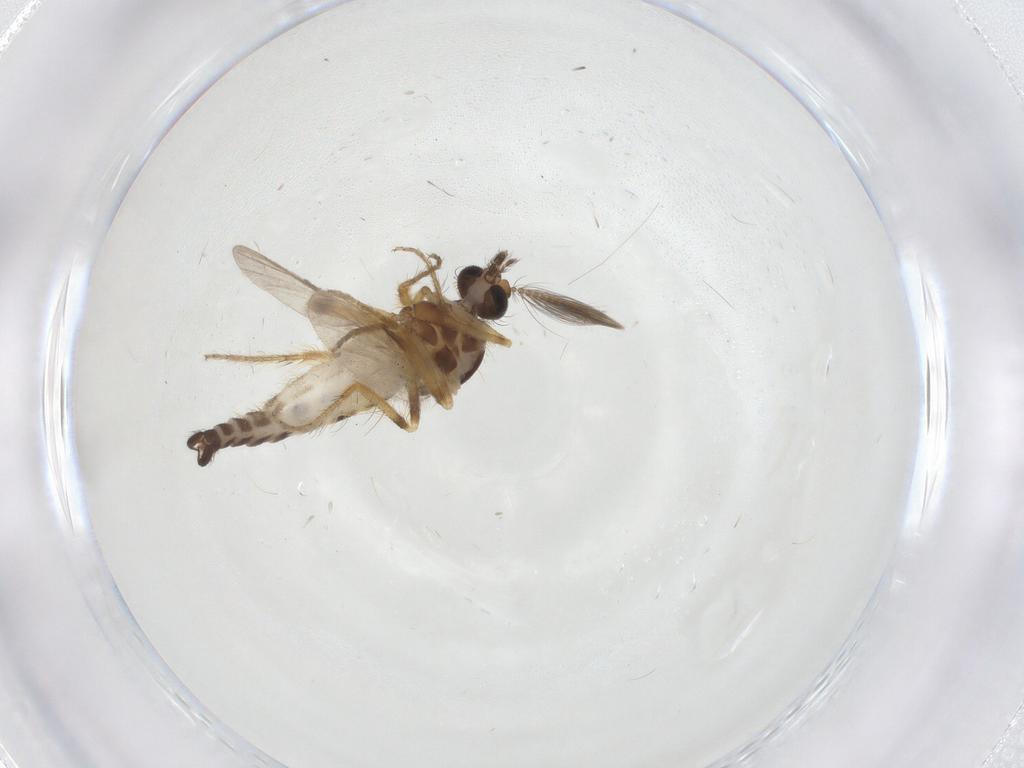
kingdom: Animalia
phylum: Arthropoda
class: Insecta
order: Diptera
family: Ceratopogonidae
